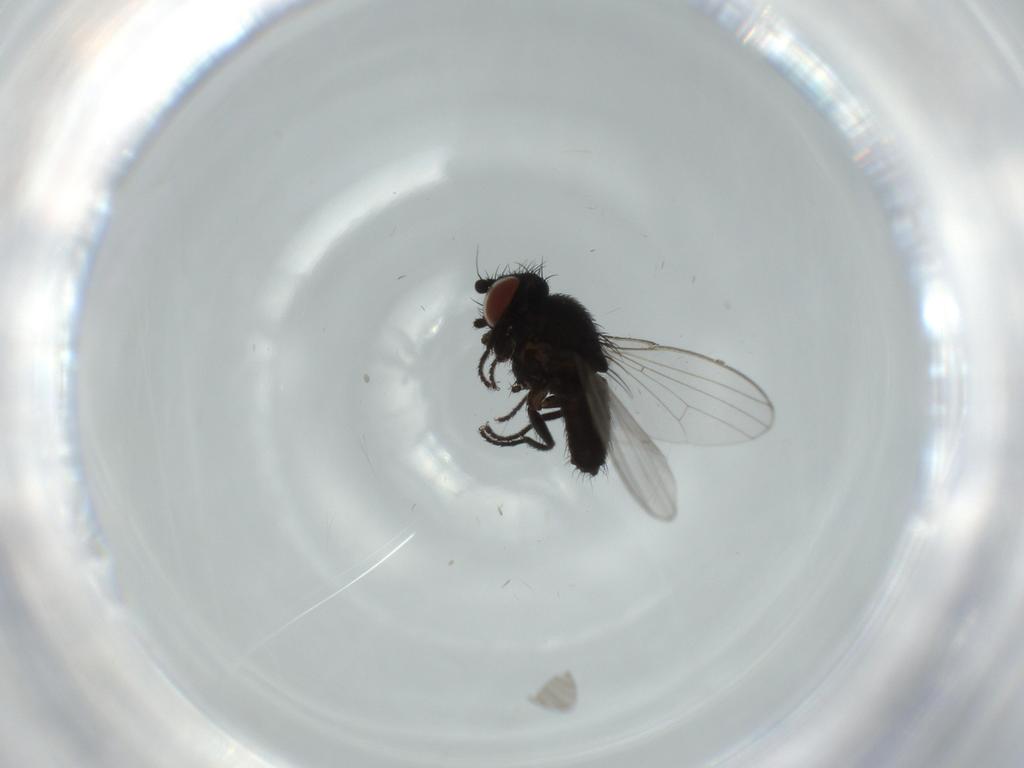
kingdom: Animalia
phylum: Arthropoda
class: Insecta
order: Diptera
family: Milichiidae
